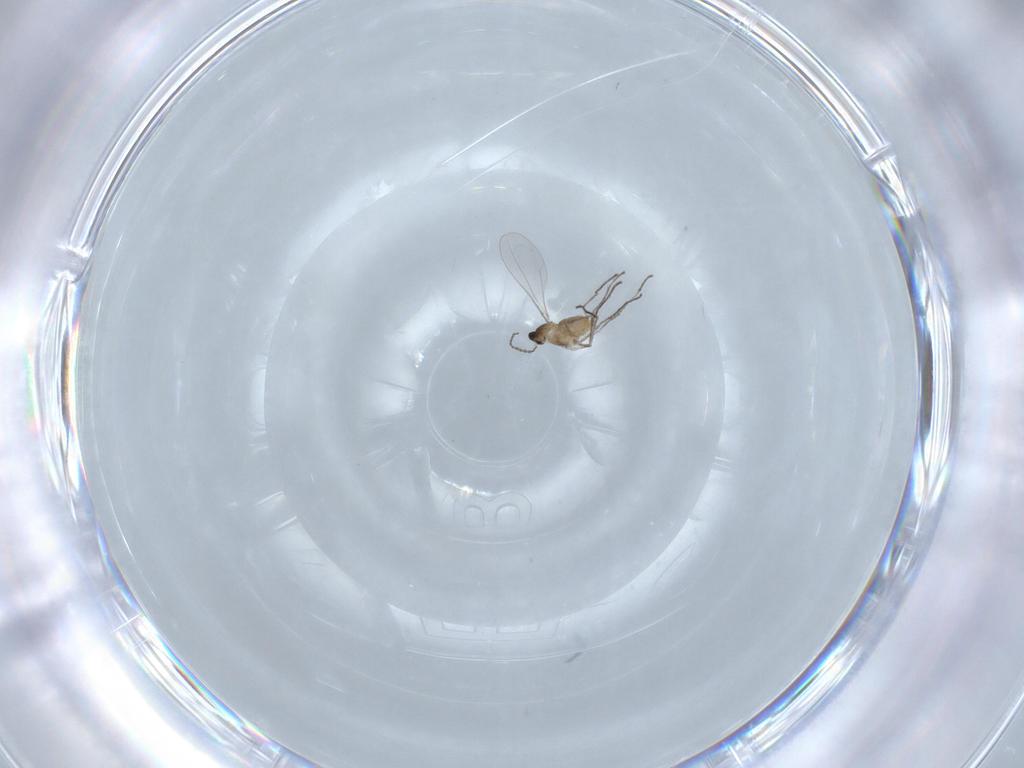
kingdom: Animalia
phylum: Arthropoda
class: Insecta
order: Diptera
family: Cecidomyiidae
